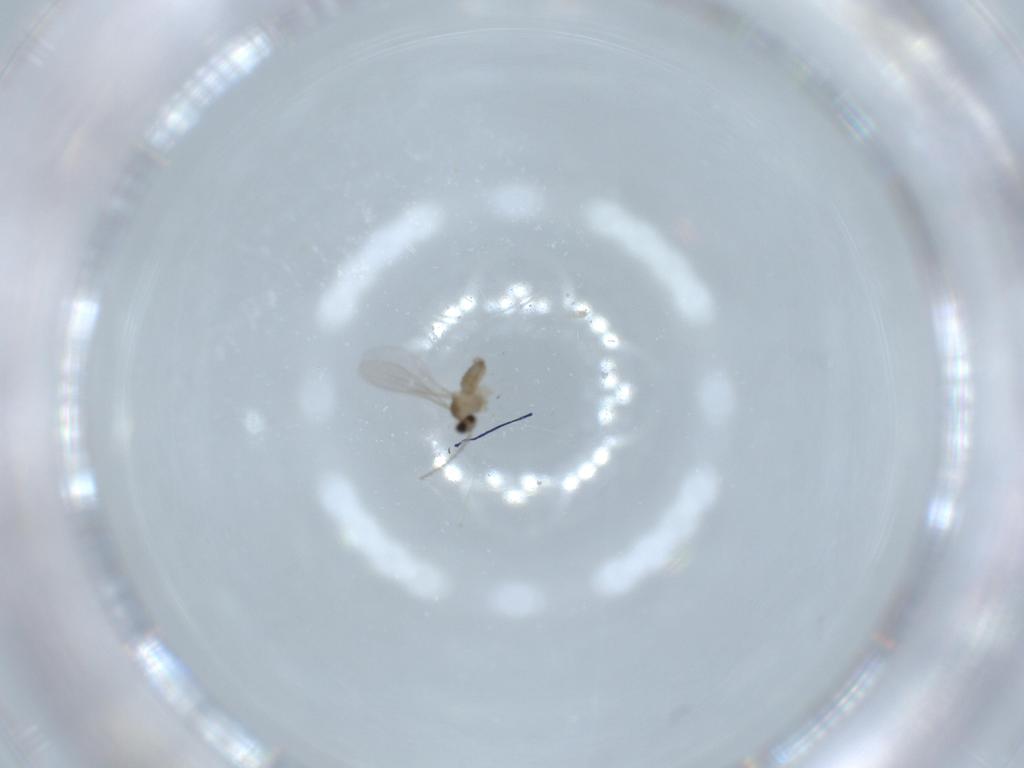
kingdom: Animalia
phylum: Arthropoda
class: Insecta
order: Diptera
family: Cecidomyiidae
